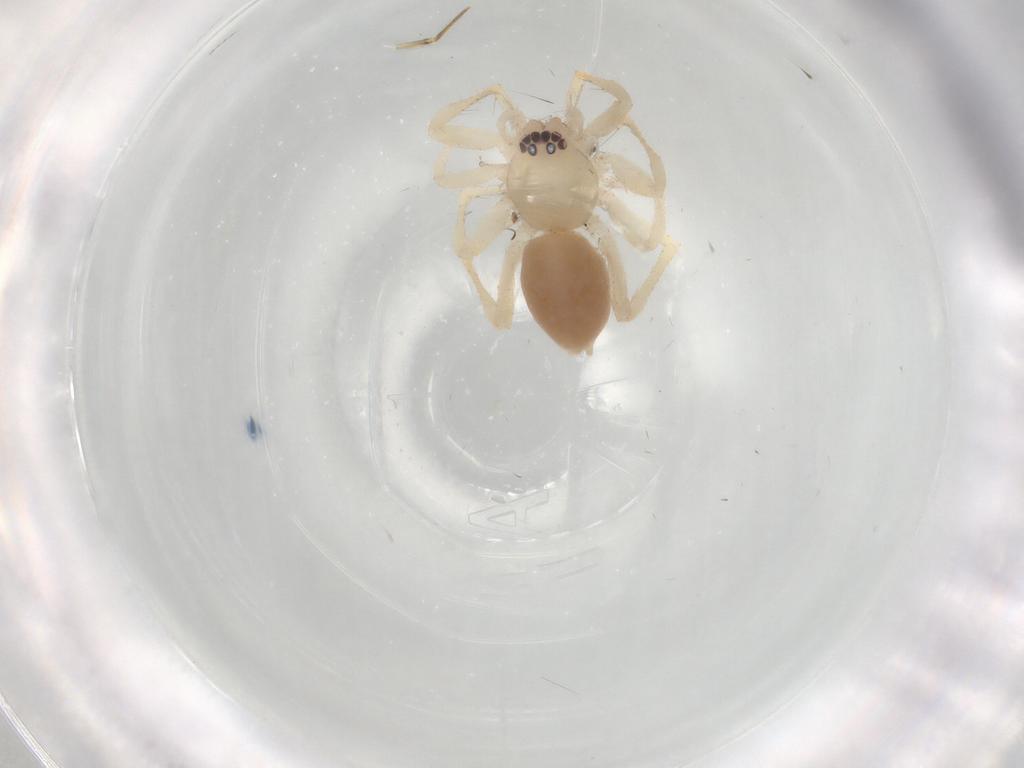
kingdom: Animalia
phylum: Arthropoda
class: Arachnida
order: Araneae
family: Clubionidae
